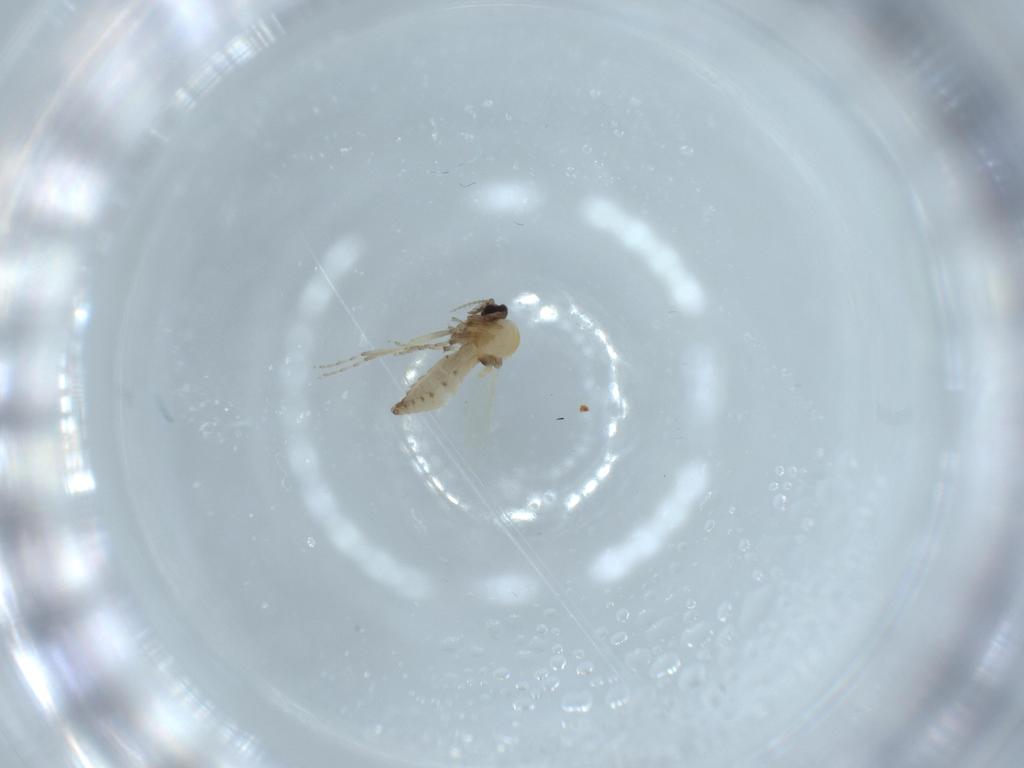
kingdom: Animalia
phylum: Arthropoda
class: Insecta
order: Diptera
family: Ceratopogonidae
